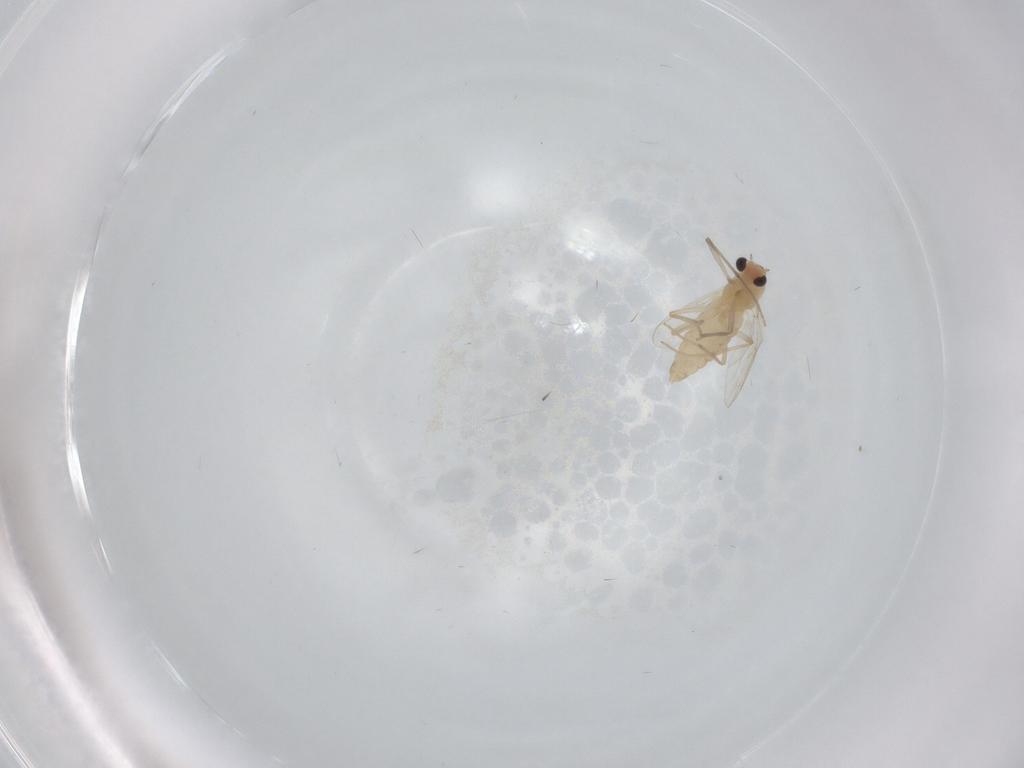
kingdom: Animalia
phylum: Arthropoda
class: Insecta
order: Diptera
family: Chironomidae
